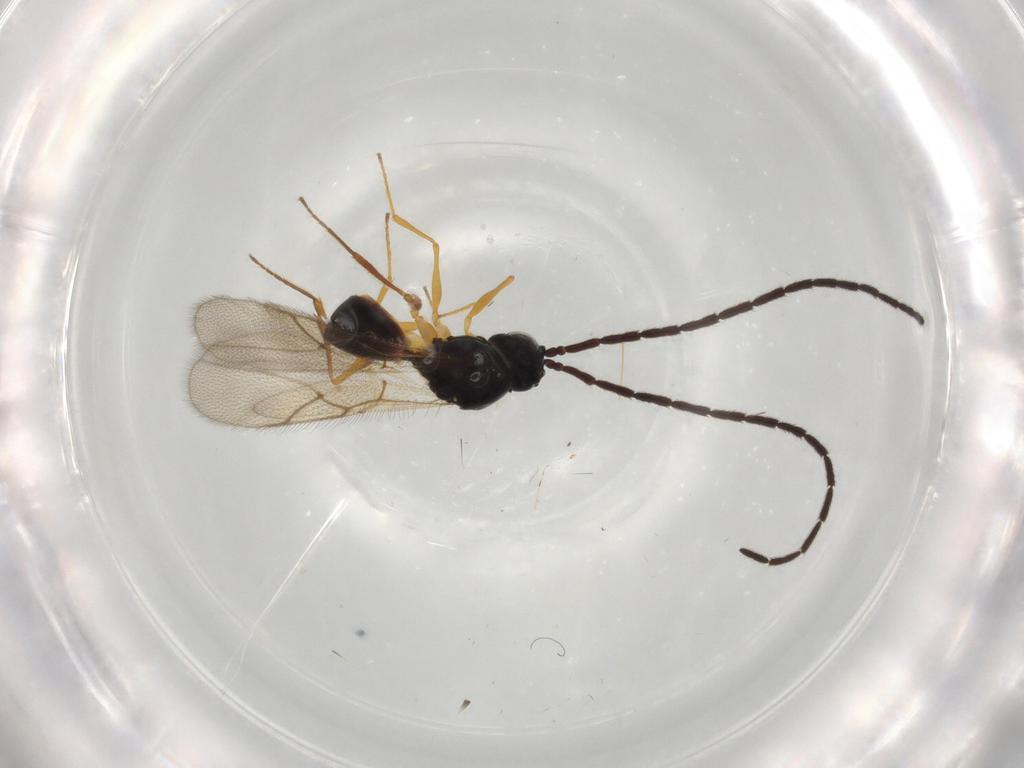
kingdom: Animalia
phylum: Arthropoda
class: Insecta
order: Hymenoptera
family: Figitidae
